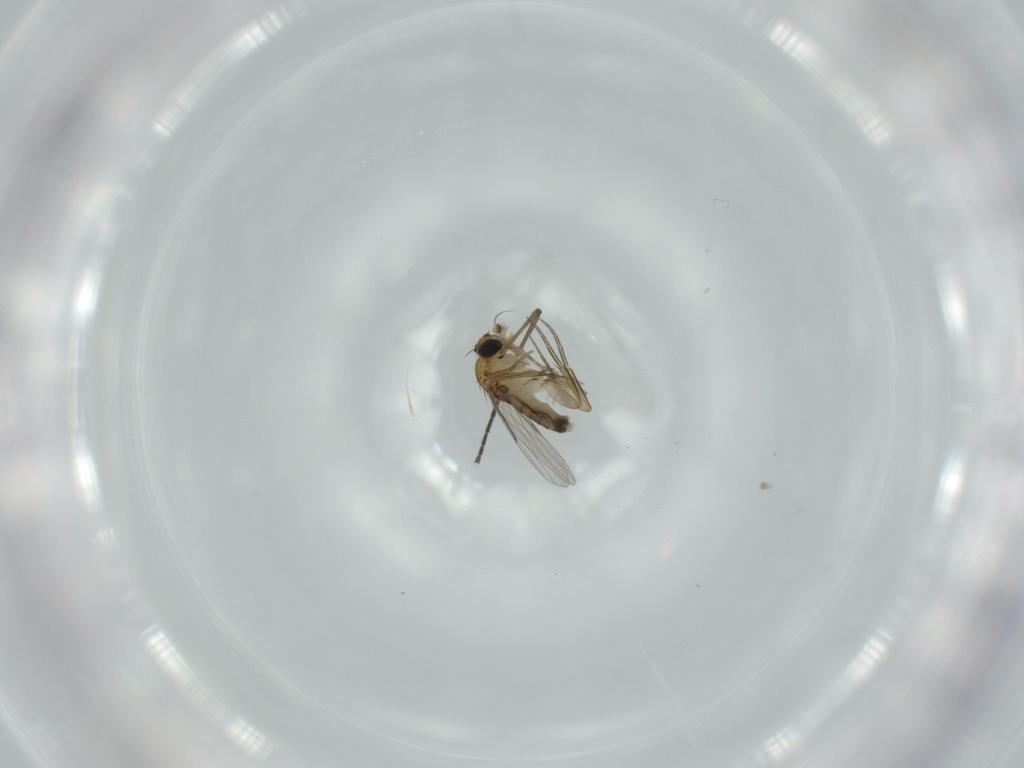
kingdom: Animalia
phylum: Arthropoda
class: Insecta
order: Diptera
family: Phoridae
